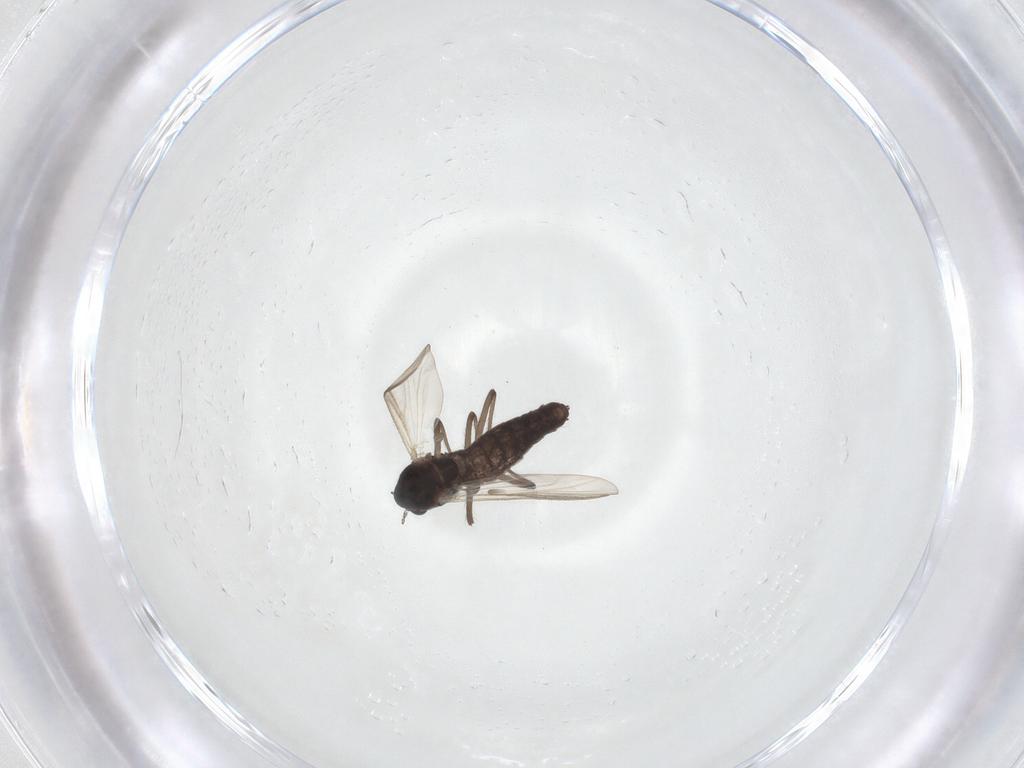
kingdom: Animalia
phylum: Arthropoda
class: Insecta
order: Diptera
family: Chironomidae
